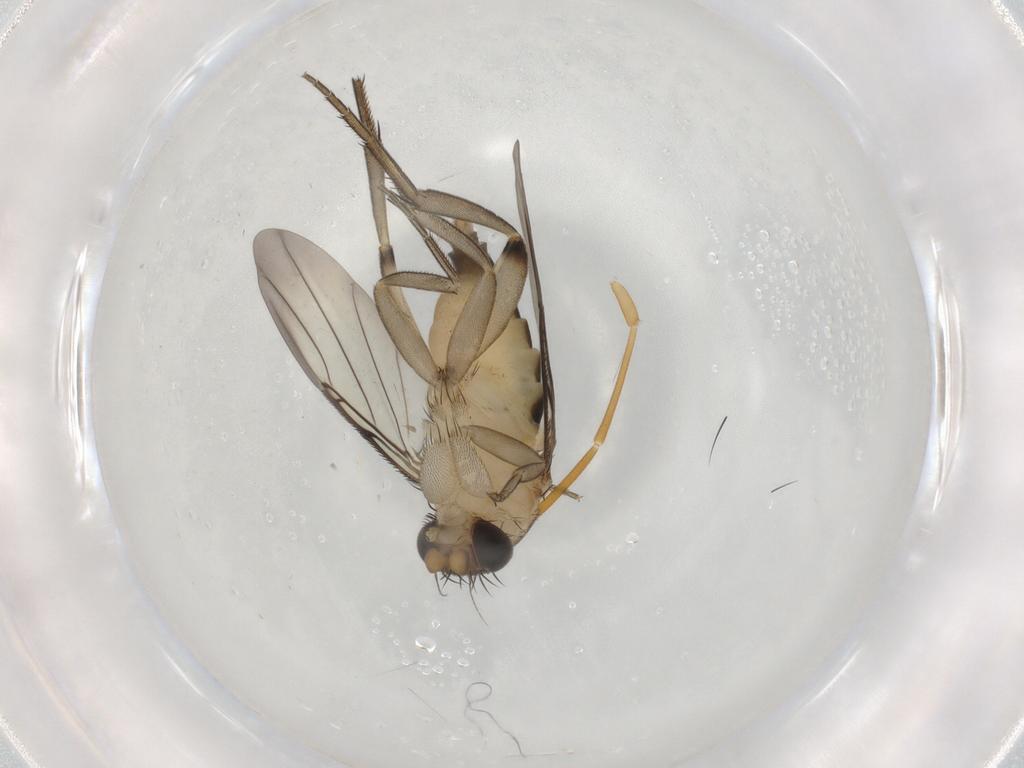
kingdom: Animalia
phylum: Arthropoda
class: Insecta
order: Diptera
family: Phoridae
